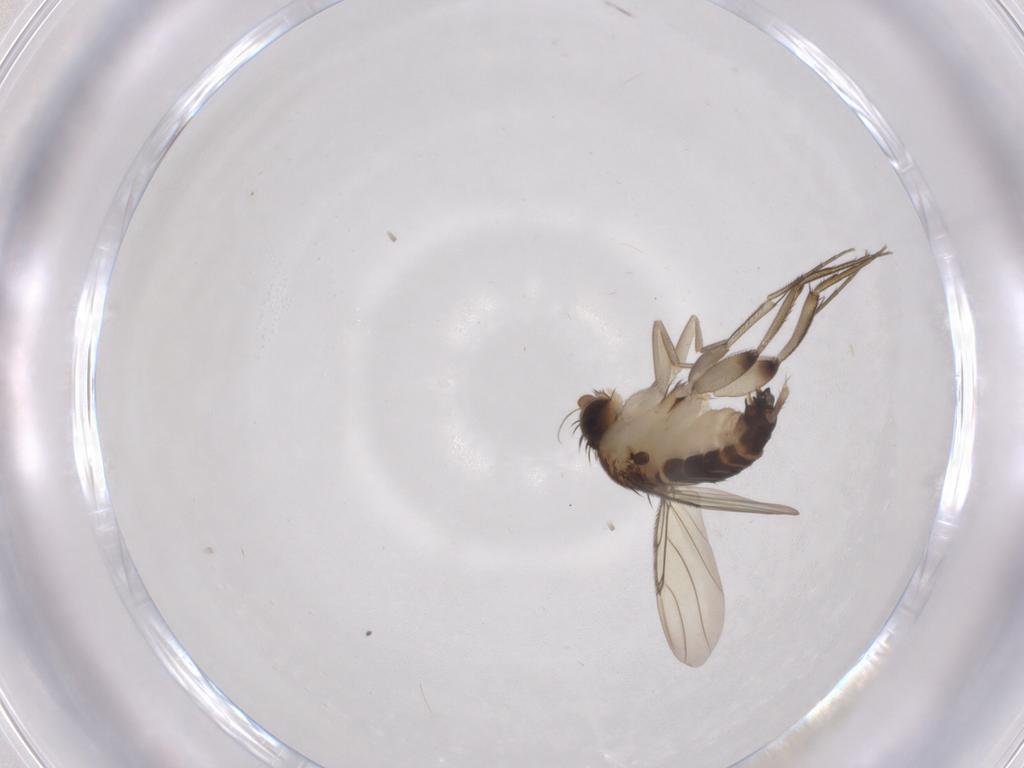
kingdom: Animalia
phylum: Arthropoda
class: Insecta
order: Diptera
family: Phoridae
